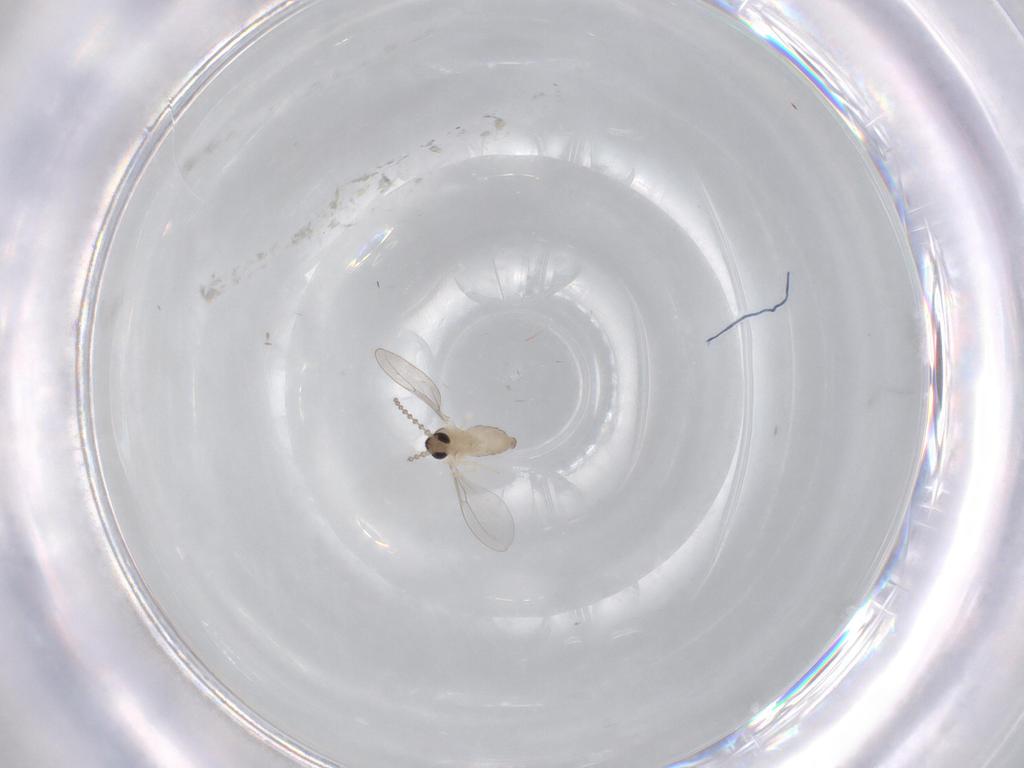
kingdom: Animalia
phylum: Arthropoda
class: Insecta
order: Diptera
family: Cecidomyiidae
